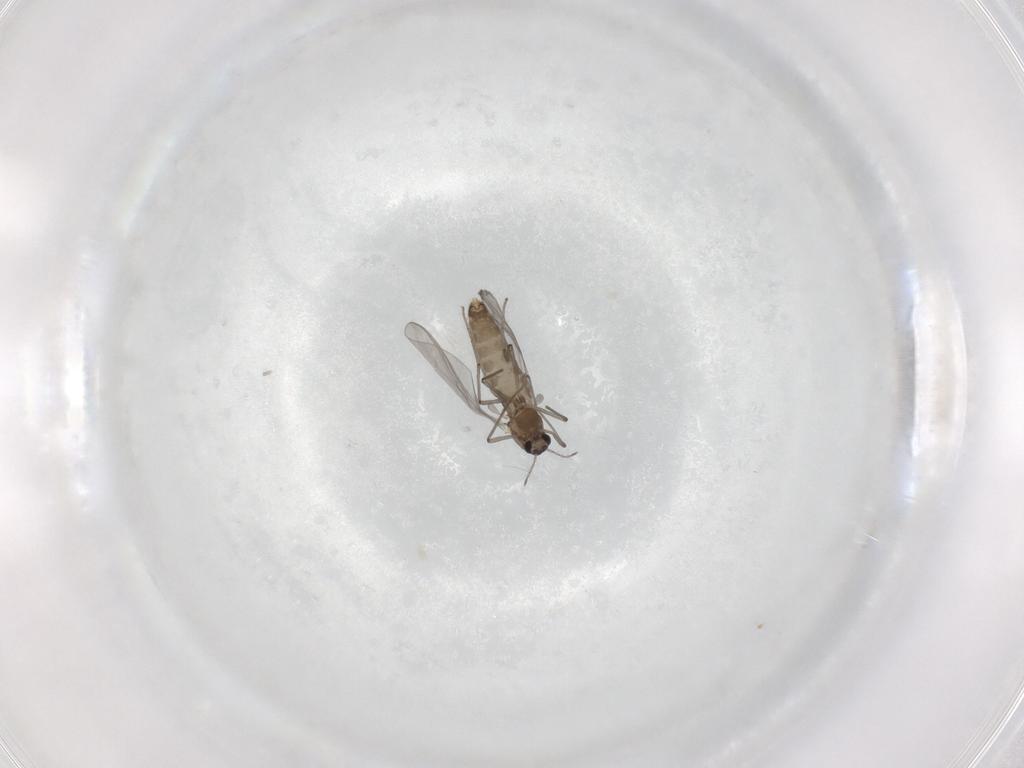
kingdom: Animalia
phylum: Arthropoda
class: Insecta
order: Diptera
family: Chironomidae
